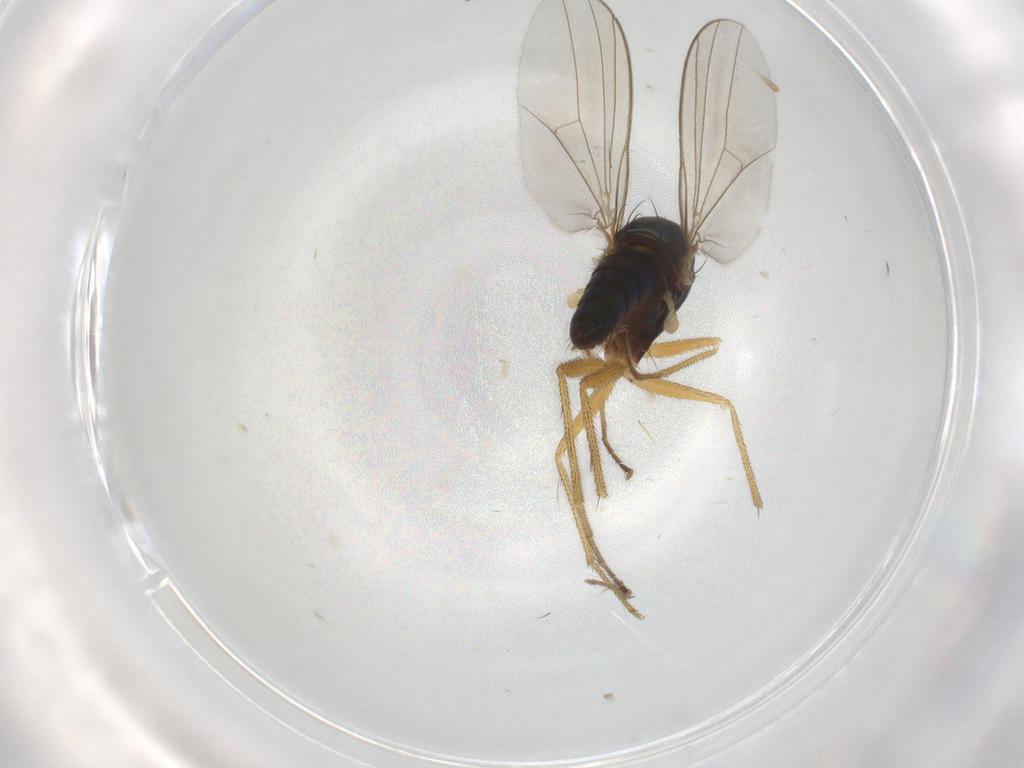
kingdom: Animalia
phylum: Arthropoda
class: Insecta
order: Diptera
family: Dolichopodidae
